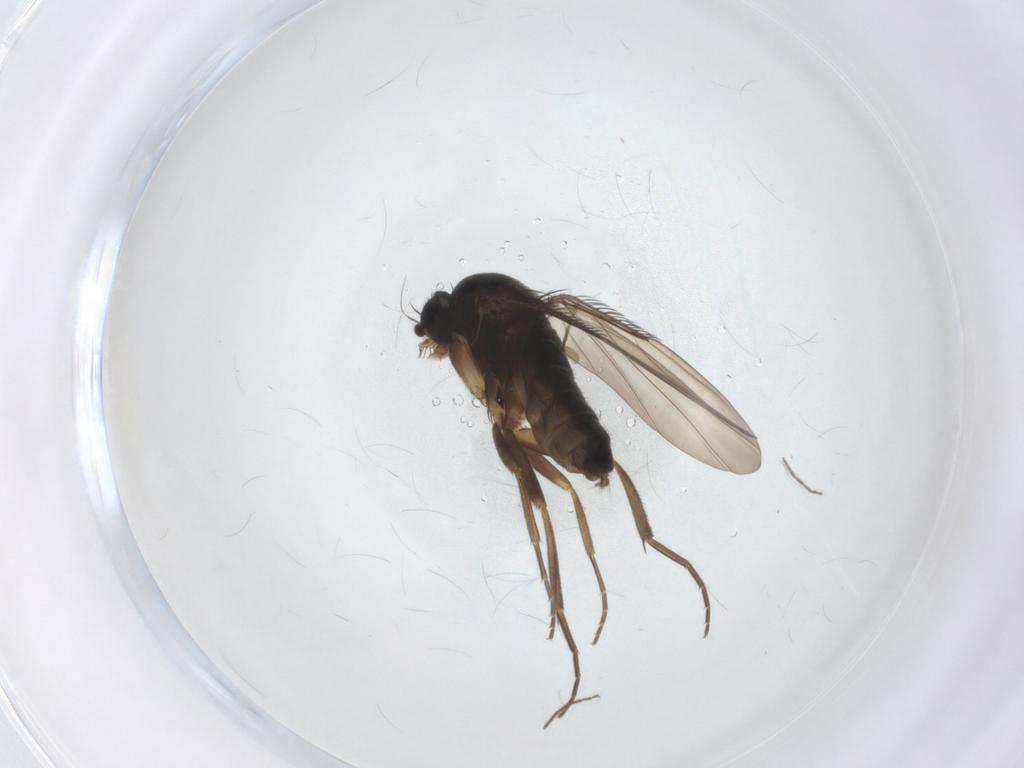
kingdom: Animalia
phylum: Arthropoda
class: Insecta
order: Diptera
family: Phoridae
